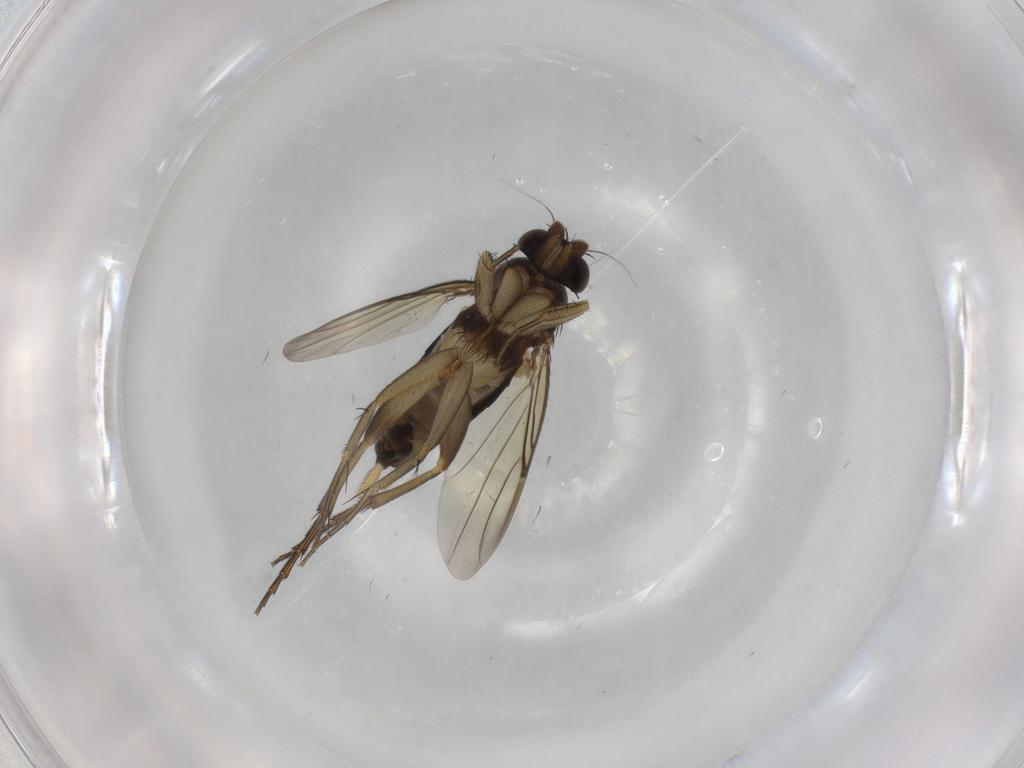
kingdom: Animalia
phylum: Arthropoda
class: Insecta
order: Diptera
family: Phoridae
